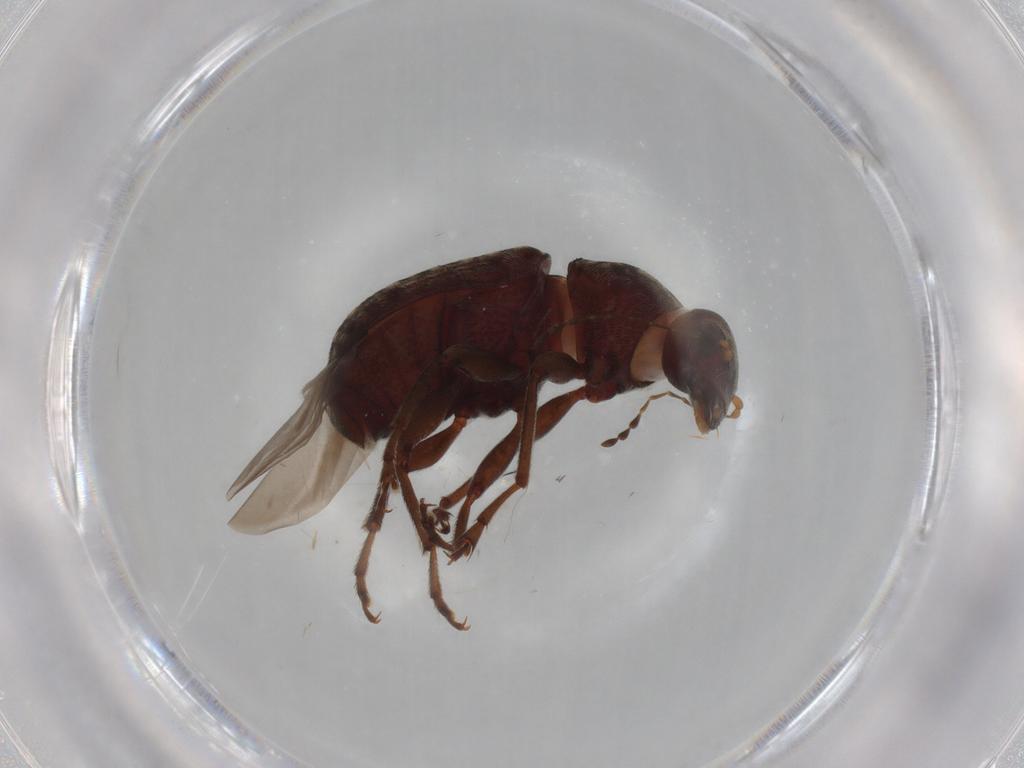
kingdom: Animalia
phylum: Arthropoda
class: Insecta
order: Coleoptera
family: Anthribidae
